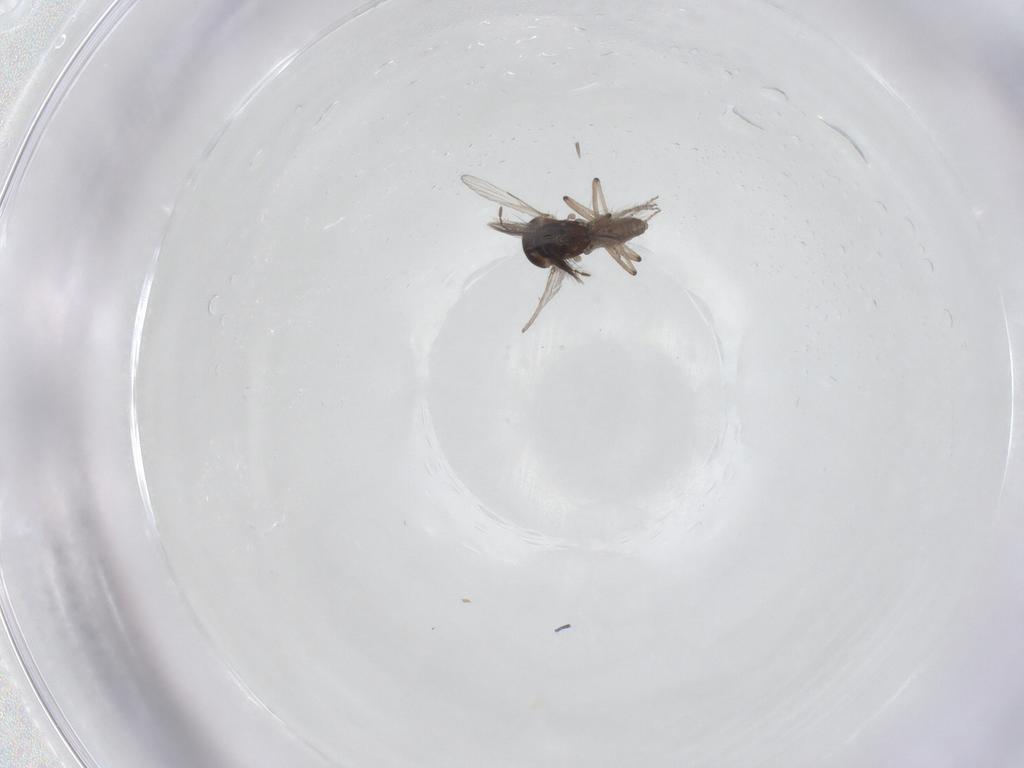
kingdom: Animalia
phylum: Arthropoda
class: Insecta
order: Diptera
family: Ceratopogonidae
